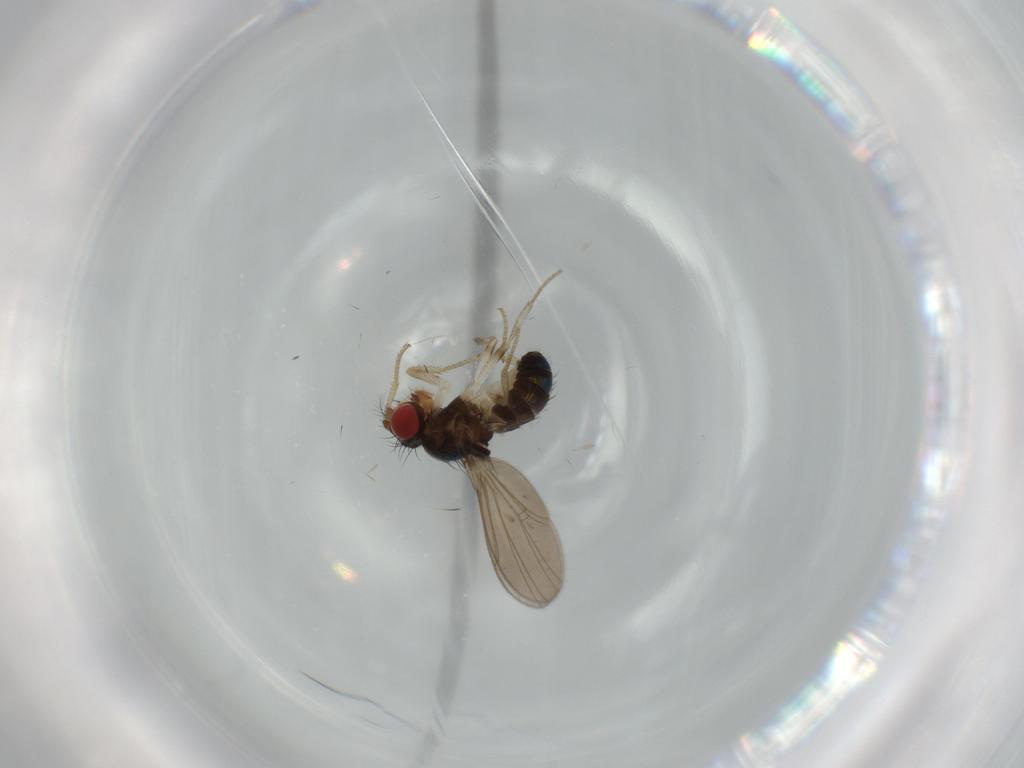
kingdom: Animalia
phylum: Arthropoda
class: Insecta
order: Diptera
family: Drosophilidae
